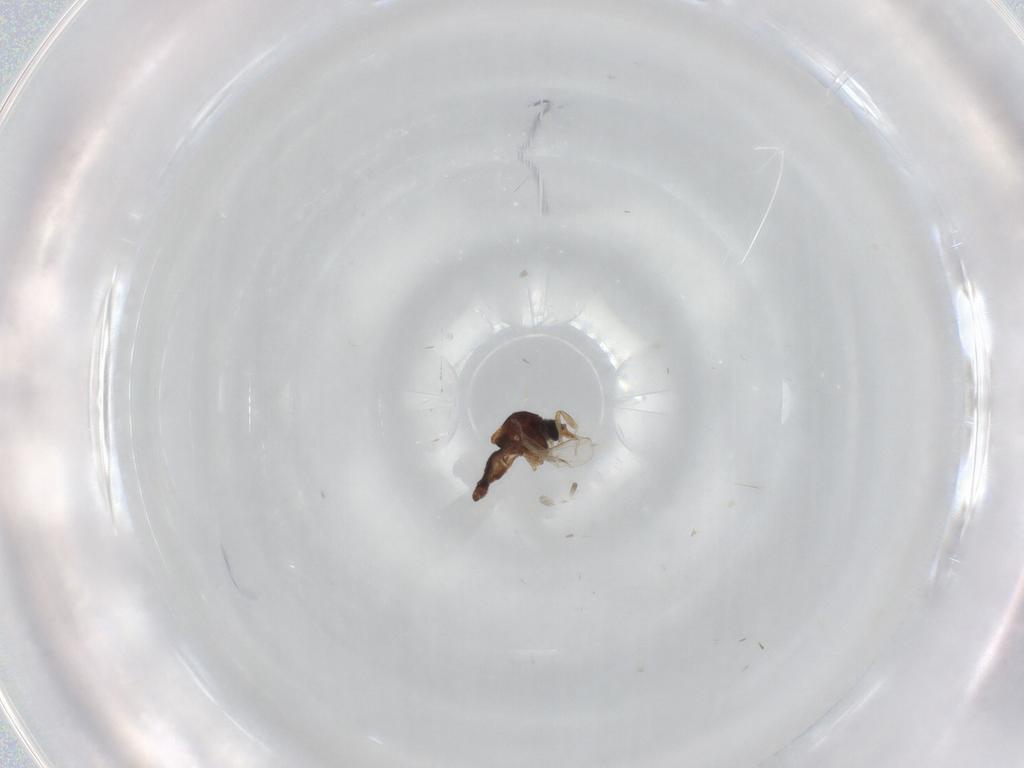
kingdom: Animalia
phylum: Arthropoda
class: Insecta
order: Diptera
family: Ceratopogonidae
